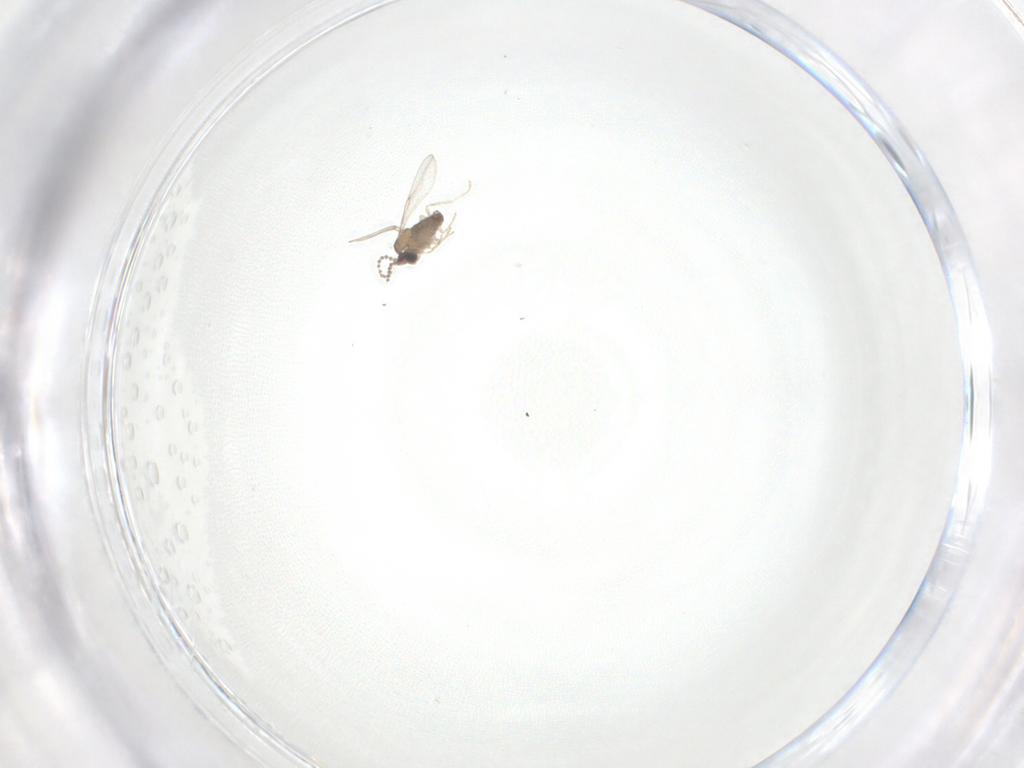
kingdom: Animalia
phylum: Arthropoda
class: Insecta
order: Diptera
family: Cecidomyiidae
